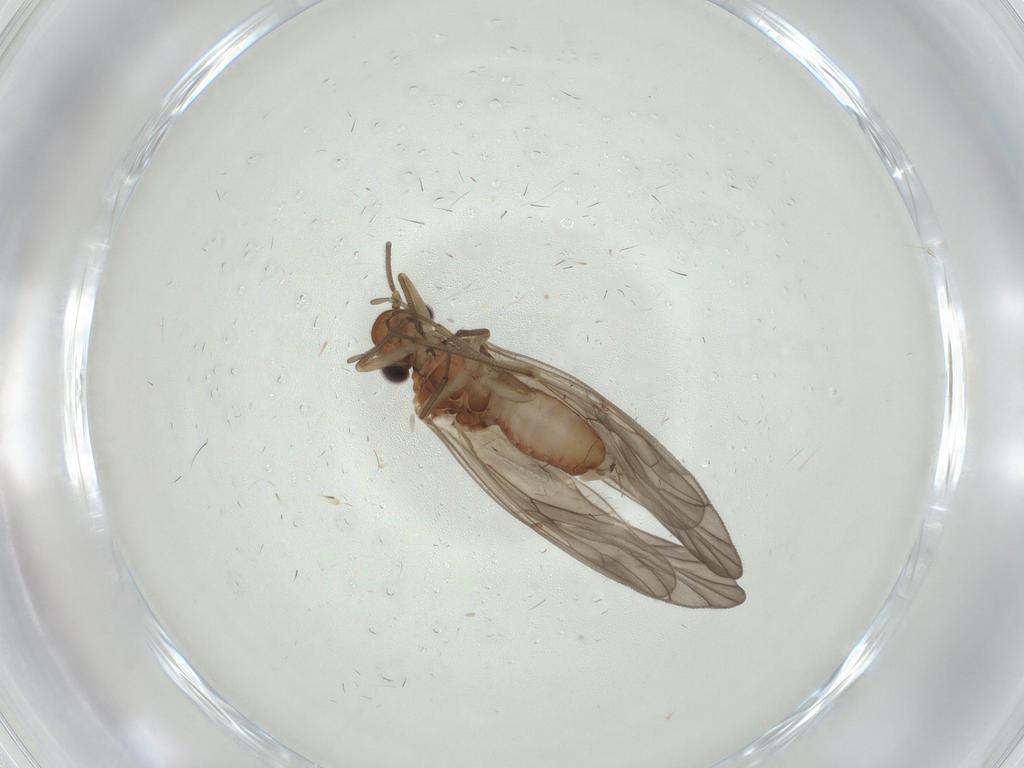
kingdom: Animalia
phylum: Arthropoda
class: Insecta
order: Psocodea
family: Caeciliusidae
